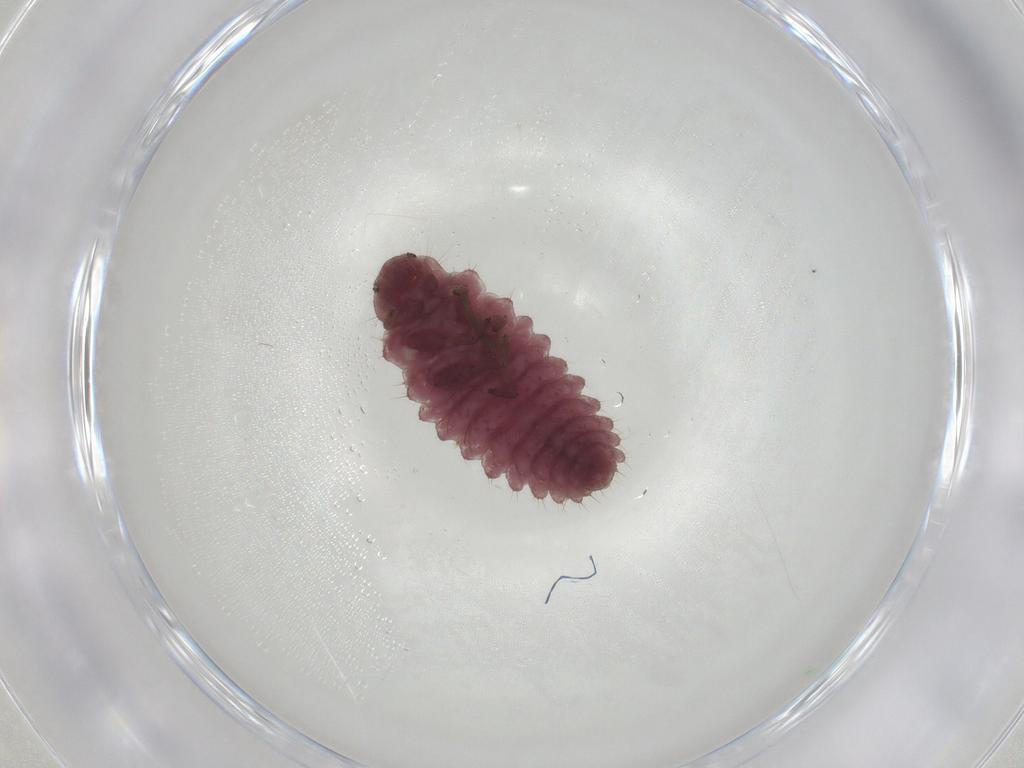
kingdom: Animalia
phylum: Arthropoda
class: Insecta
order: Coleoptera
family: Coccinellidae
